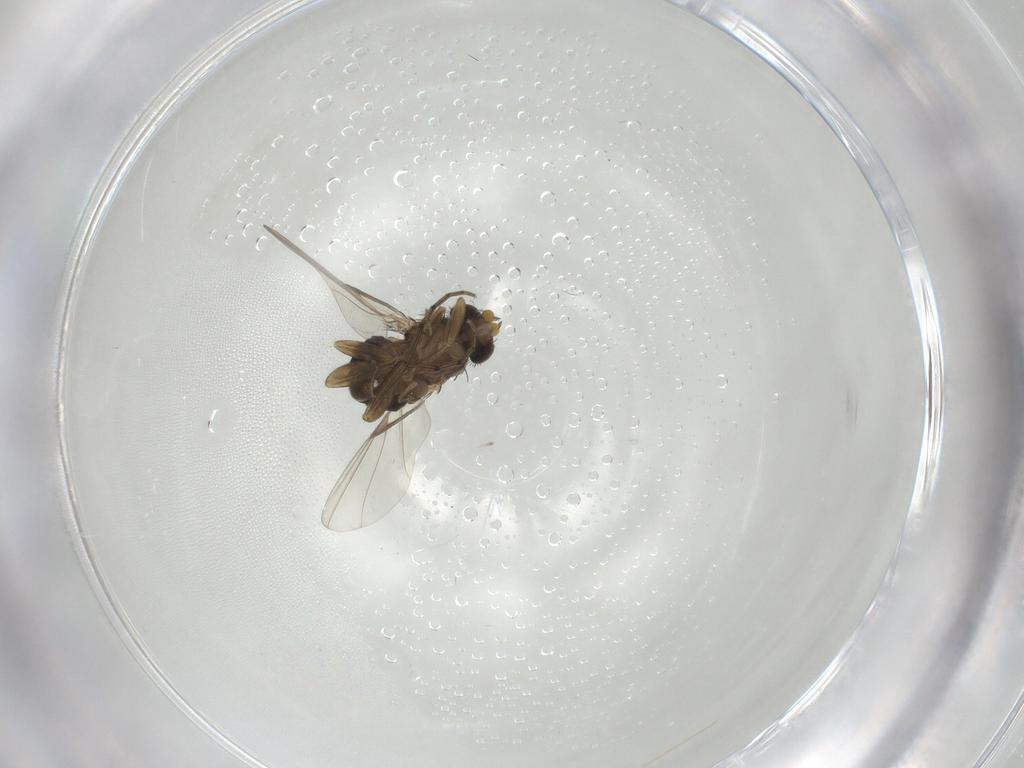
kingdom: Animalia
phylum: Arthropoda
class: Insecta
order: Diptera
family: Phoridae
